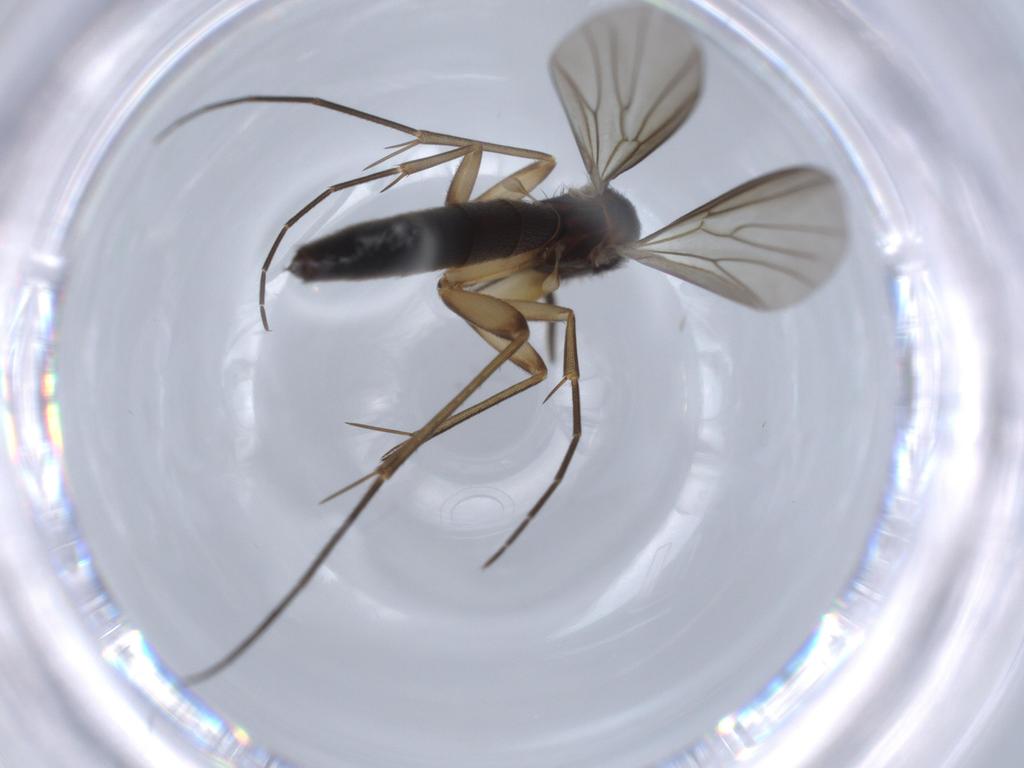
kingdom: Animalia
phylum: Arthropoda
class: Insecta
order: Diptera
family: Mycetophilidae
